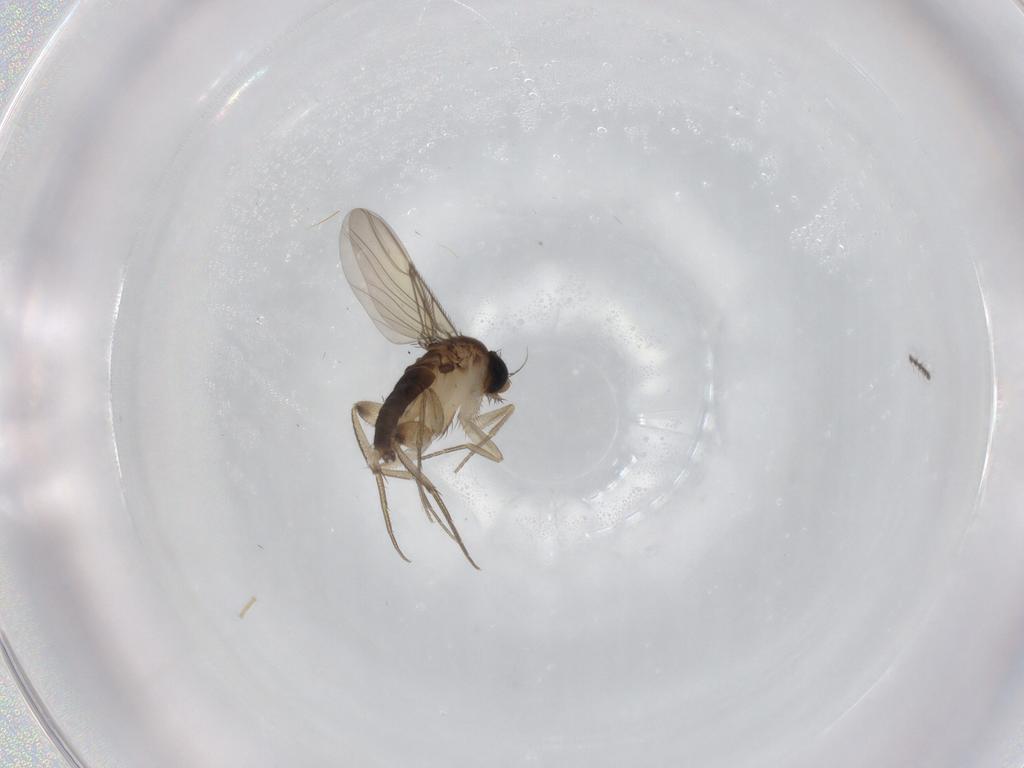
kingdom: Animalia
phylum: Arthropoda
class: Insecta
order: Diptera
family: Phoridae
